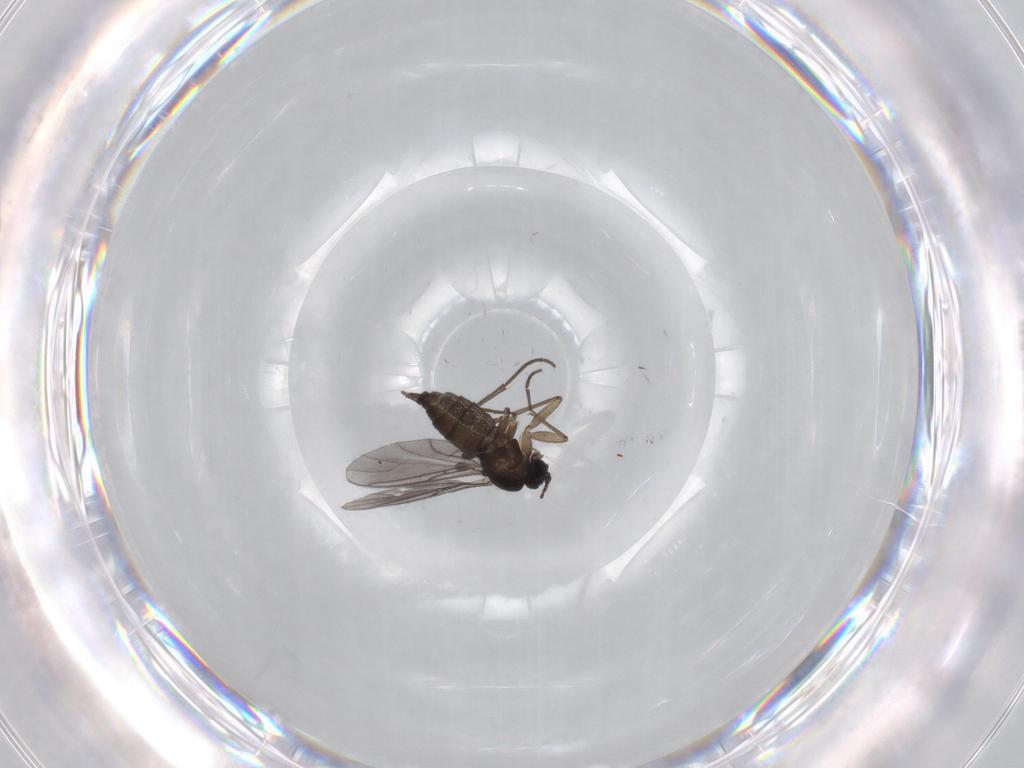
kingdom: Animalia
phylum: Arthropoda
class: Insecta
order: Diptera
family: Sciaridae
